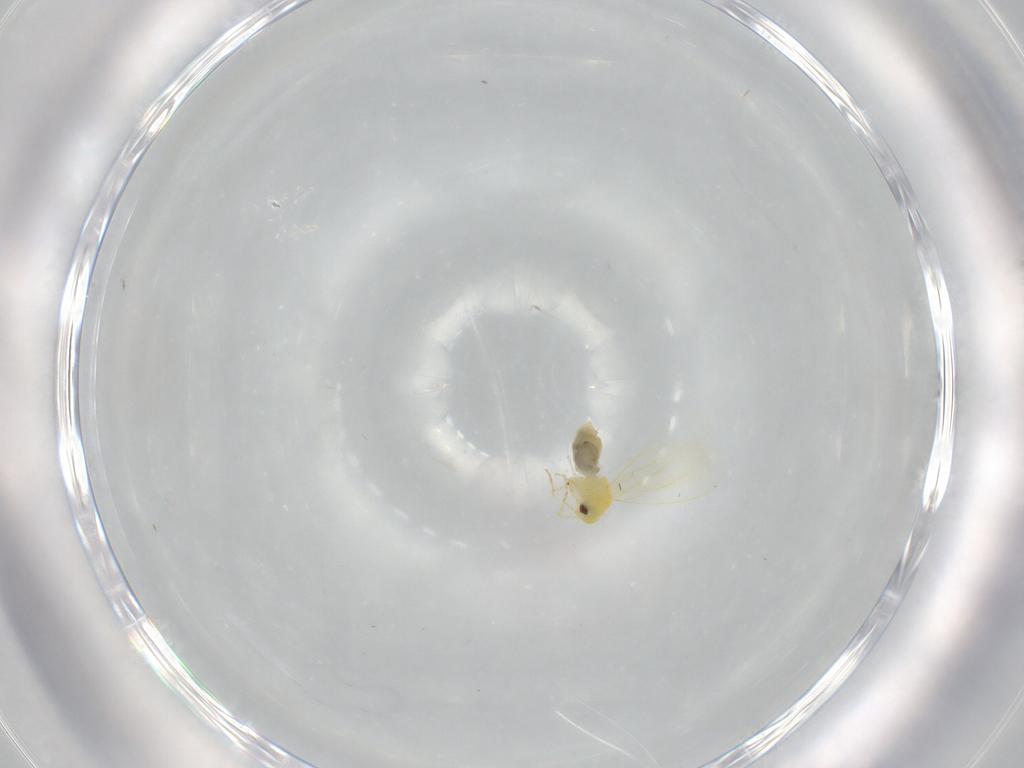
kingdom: Animalia
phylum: Arthropoda
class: Insecta
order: Hemiptera
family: Aleyrodidae
